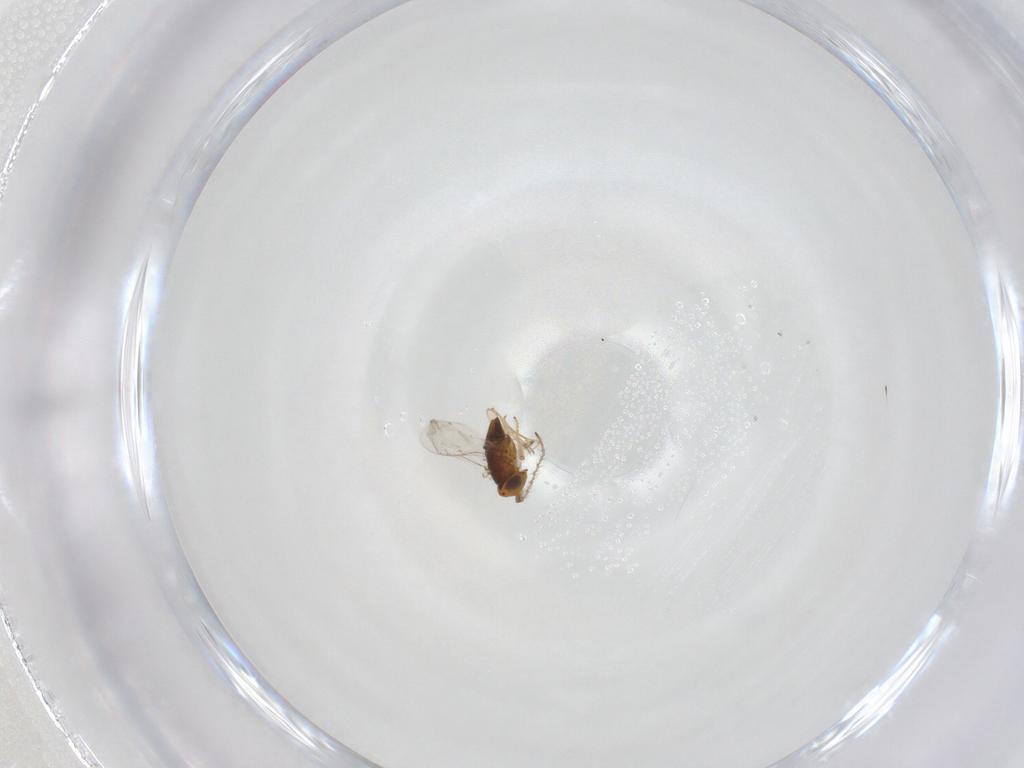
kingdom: Animalia
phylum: Arthropoda
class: Insecta
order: Hymenoptera
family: Encyrtidae
